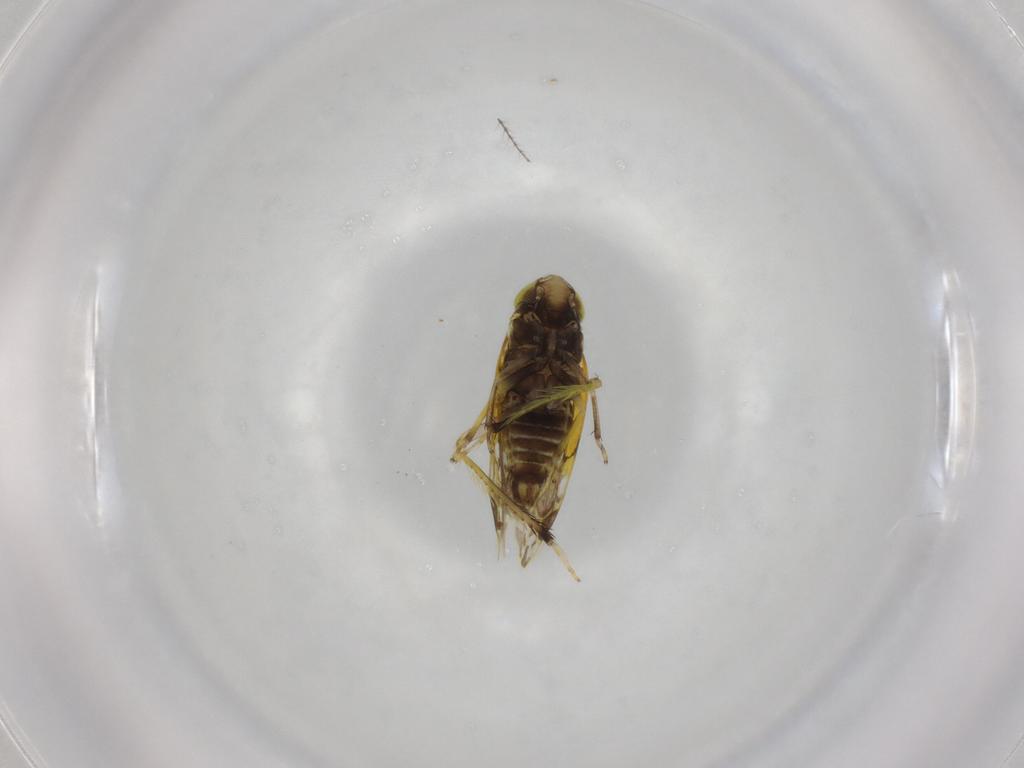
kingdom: Animalia
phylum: Arthropoda
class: Insecta
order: Hemiptera
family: Cicadellidae
